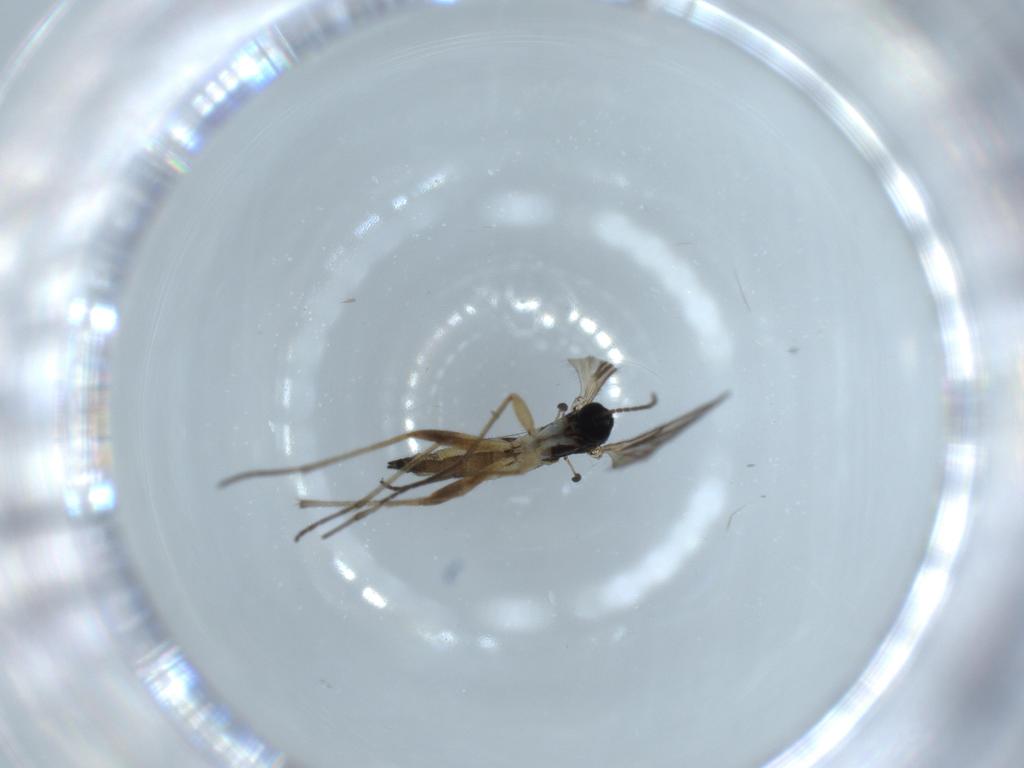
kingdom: Animalia
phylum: Arthropoda
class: Insecta
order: Diptera
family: Sciaridae
